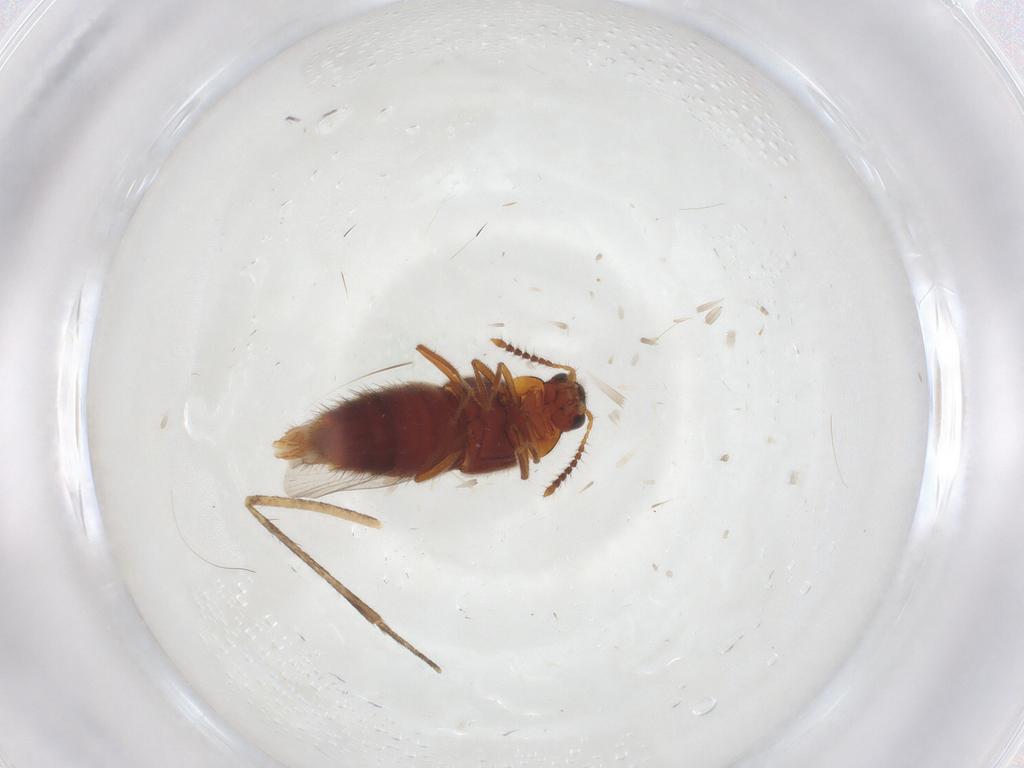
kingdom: Animalia
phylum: Arthropoda
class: Insecta
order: Coleoptera
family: Staphylinidae
